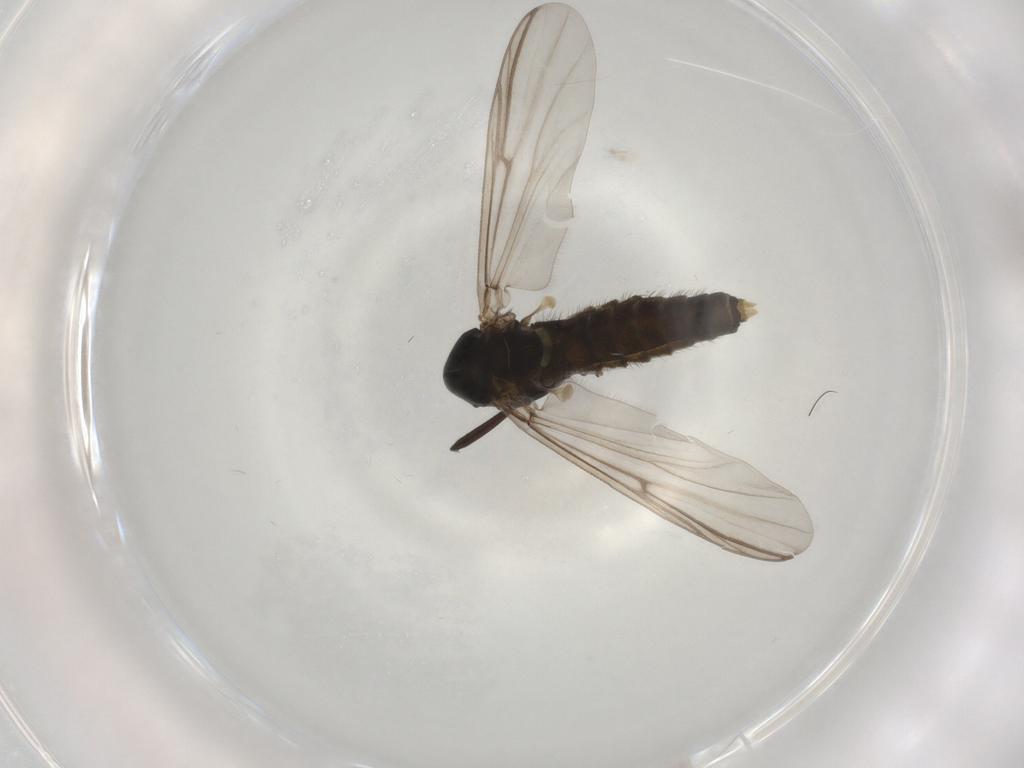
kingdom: Animalia
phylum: Arthropoda
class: Insecta
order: Diptera
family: Chironomidae
